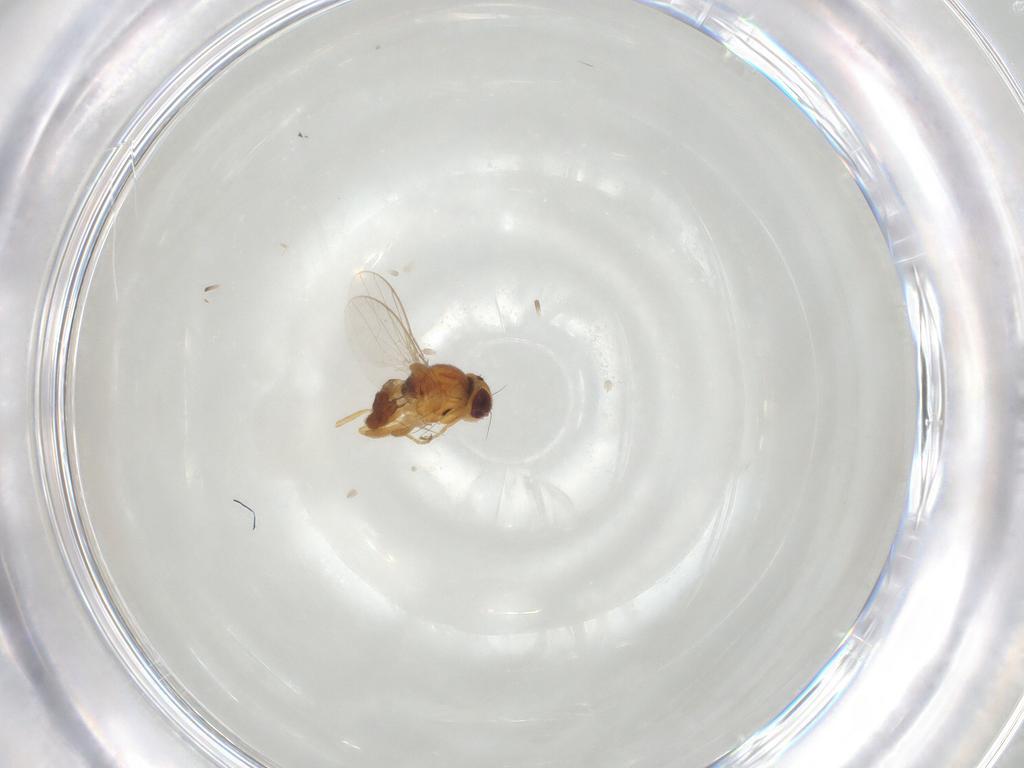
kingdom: Animalia
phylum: Arthropoda
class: Insecta
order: Diptera
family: Chloropidae
